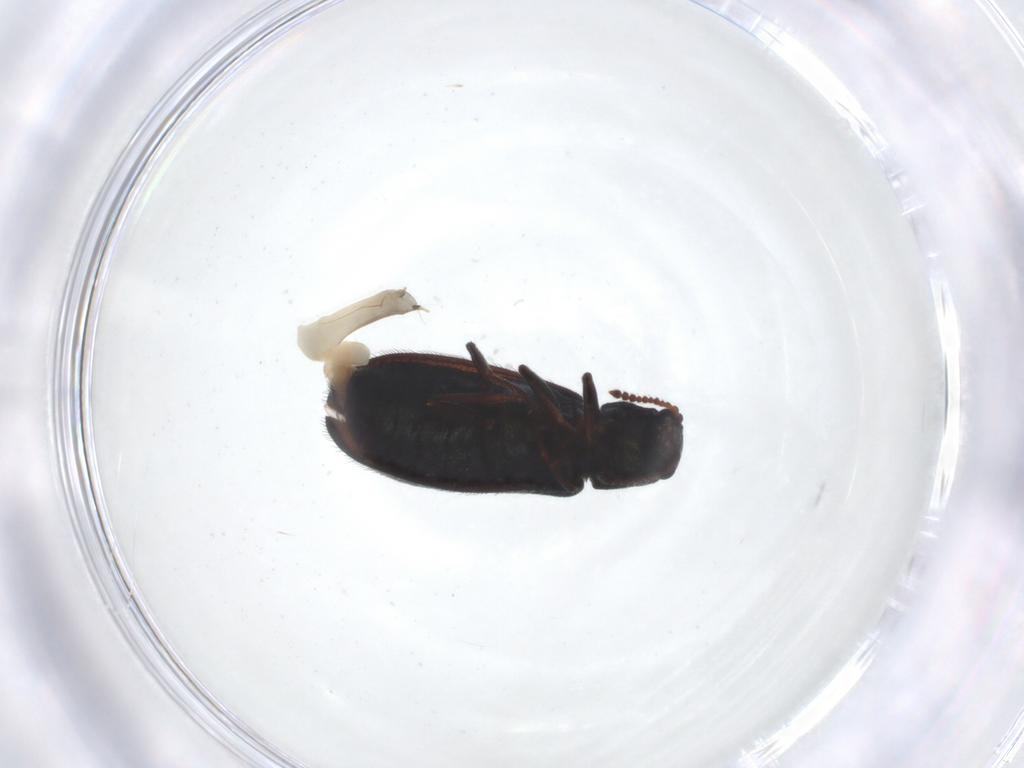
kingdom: Animalia
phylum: Arthropoda
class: Insecta
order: Coleoptera
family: Melyridae
